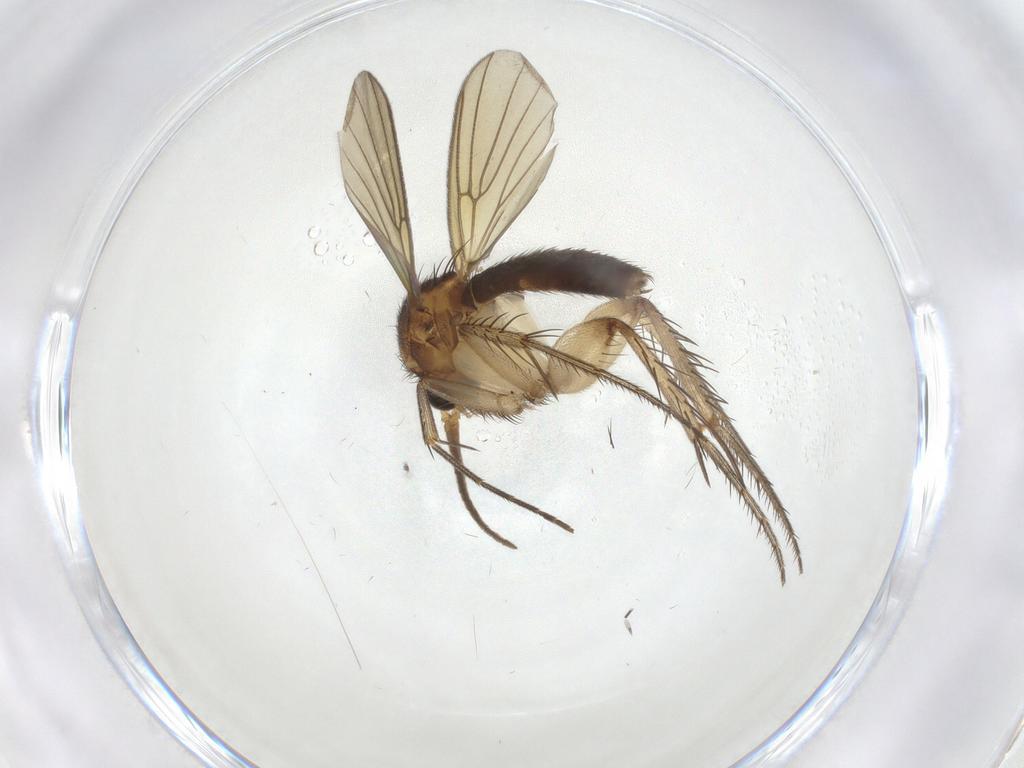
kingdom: Animalia
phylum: Arthropoda
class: Insecta
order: Diptera
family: Mycetophilidae
